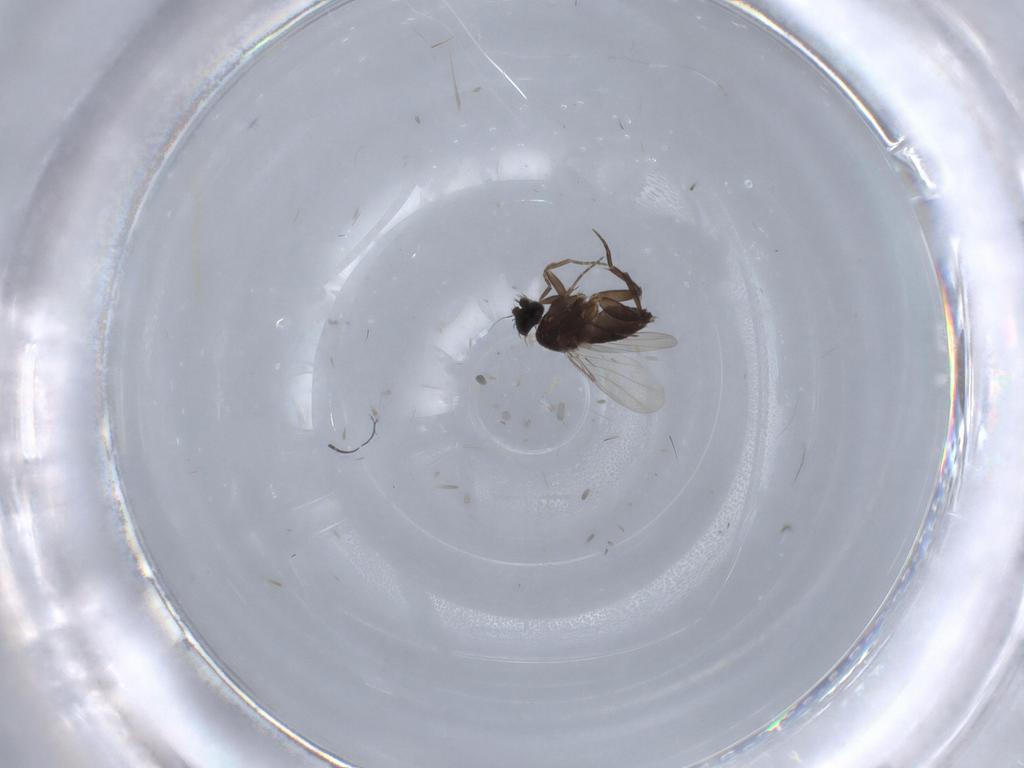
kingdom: Animalia
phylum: Arthropoda
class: Insecta
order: Diptera
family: Phoridae
